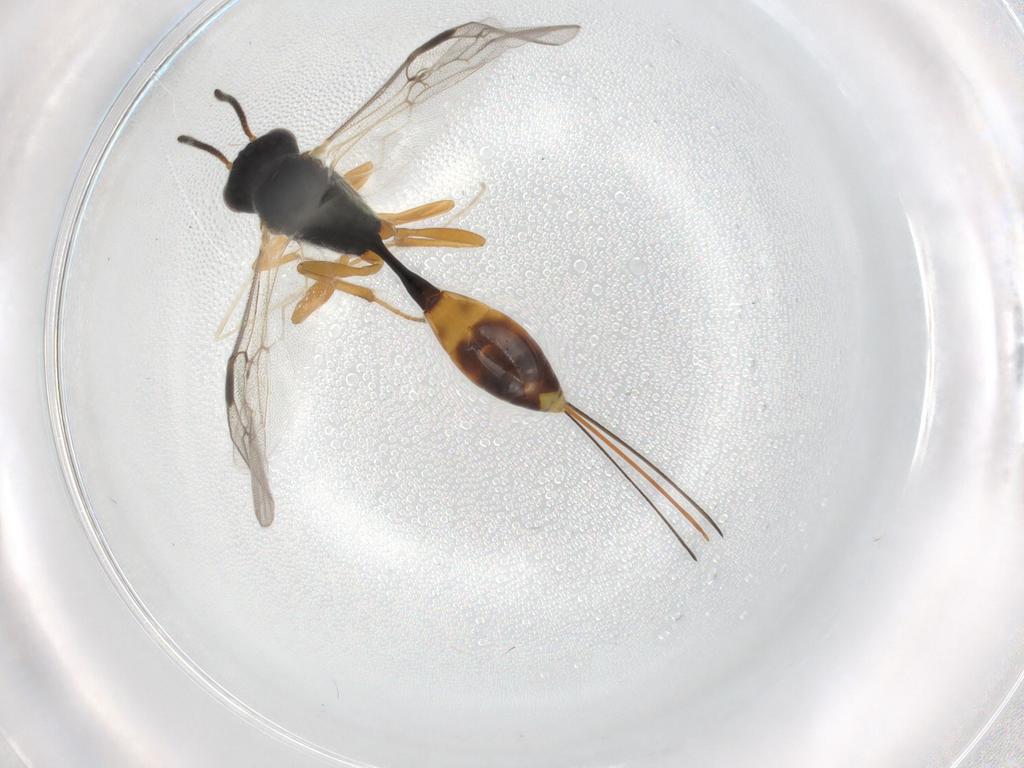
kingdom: Animalia
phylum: Arthropoda
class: Insecta
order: Hymenoptera
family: Ichneumonidae
